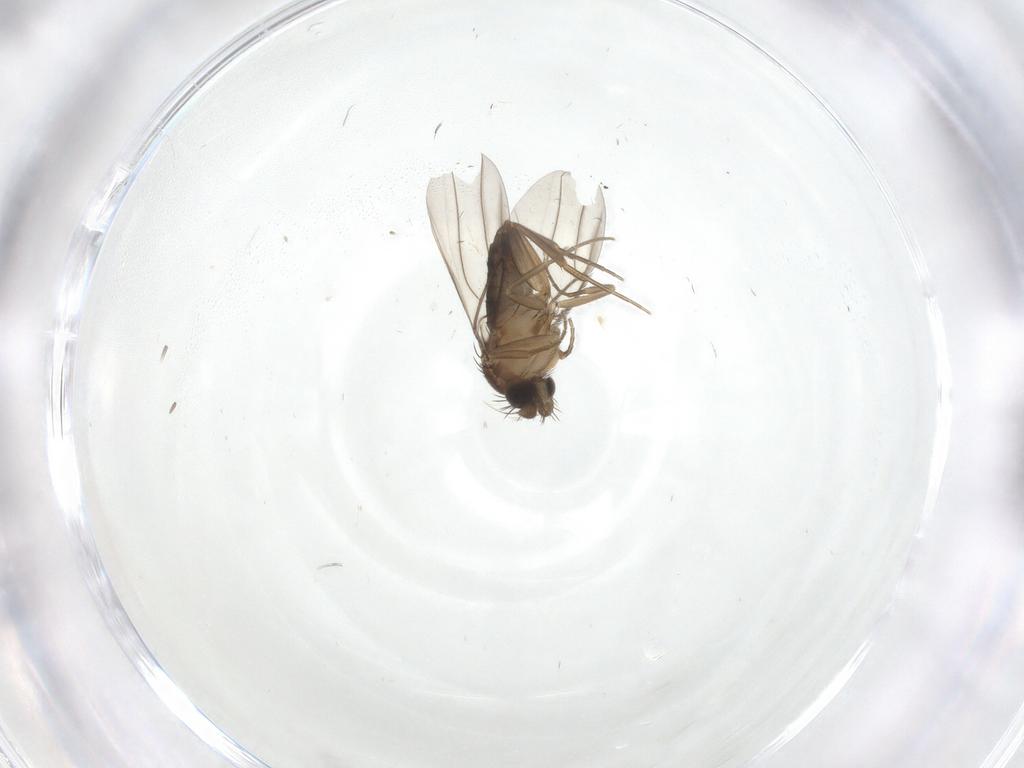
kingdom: Animalia
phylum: Arthropoda
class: Insecta
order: Diptera
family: Phoridae
